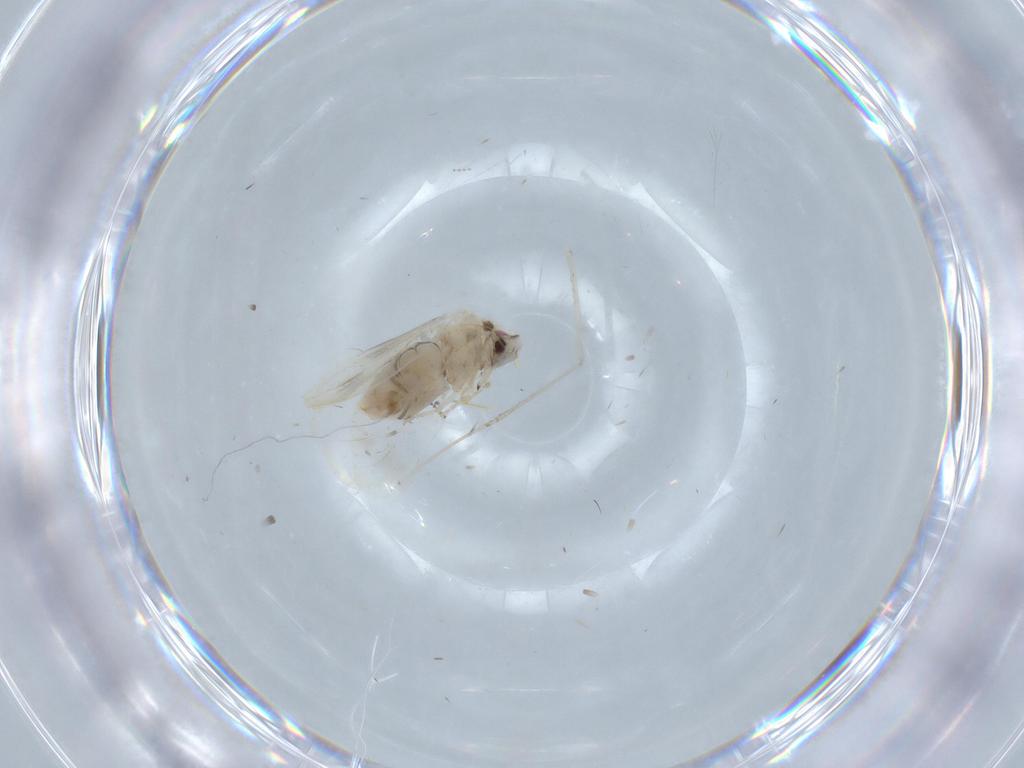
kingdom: Animalia
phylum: Arthropoda
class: Insecta
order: Hemiptera
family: Aleyrodidae
